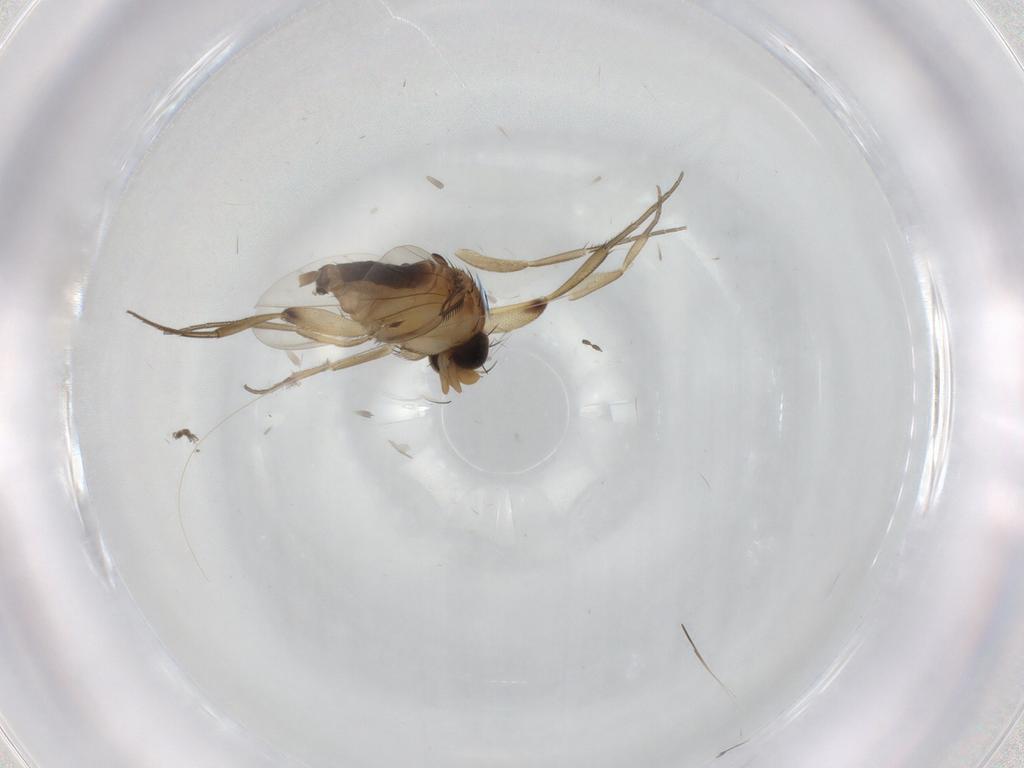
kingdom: Animalia
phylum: Arthropoda
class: Insecta
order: Diptera
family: Phoridae
